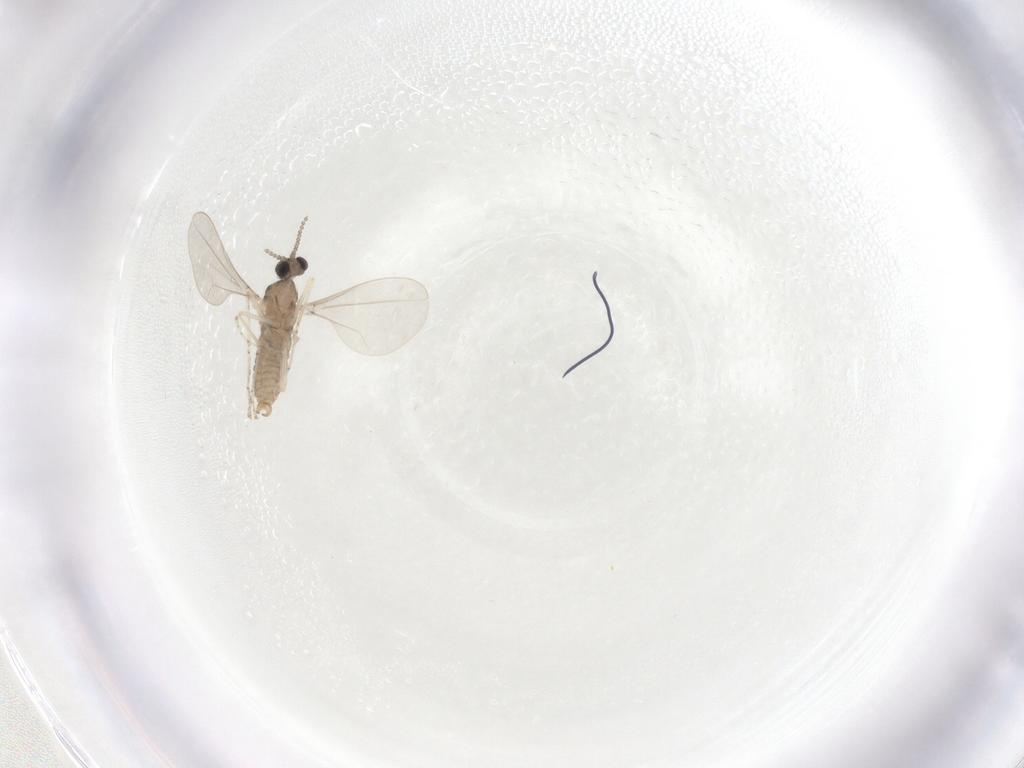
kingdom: Animalia
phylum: Arthropoda
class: Insecta
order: Diptera
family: Cecidomyiidae
